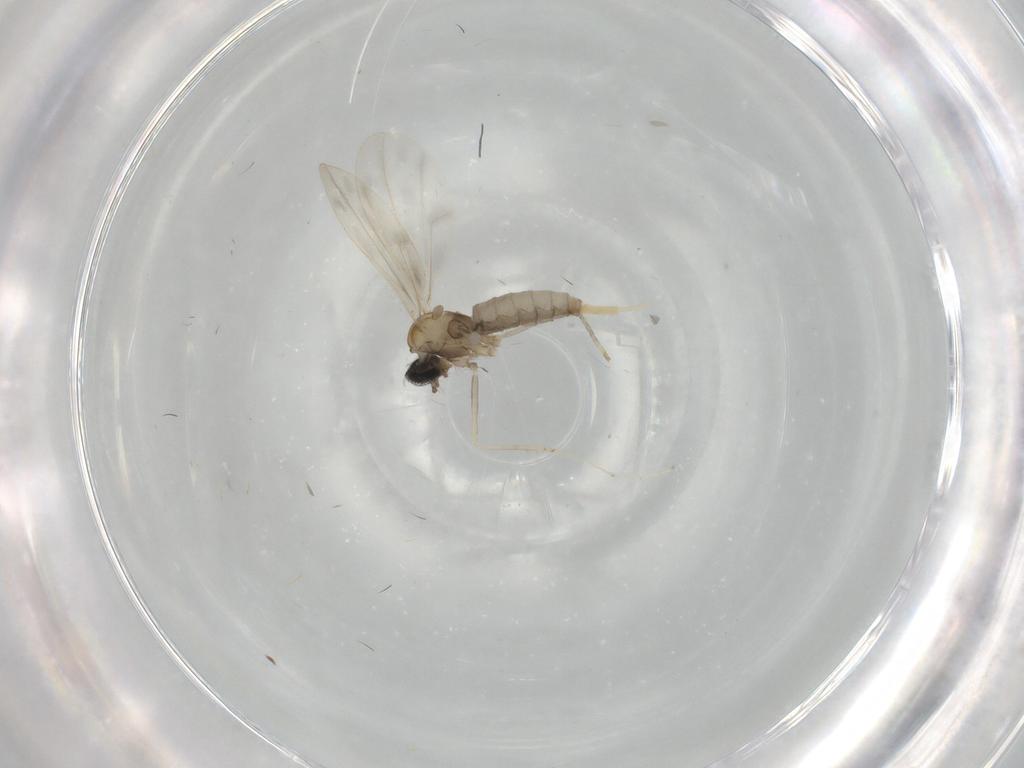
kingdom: Animalia
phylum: Arthropoda
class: Insecta
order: Diptera
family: Cecidomyiidae
